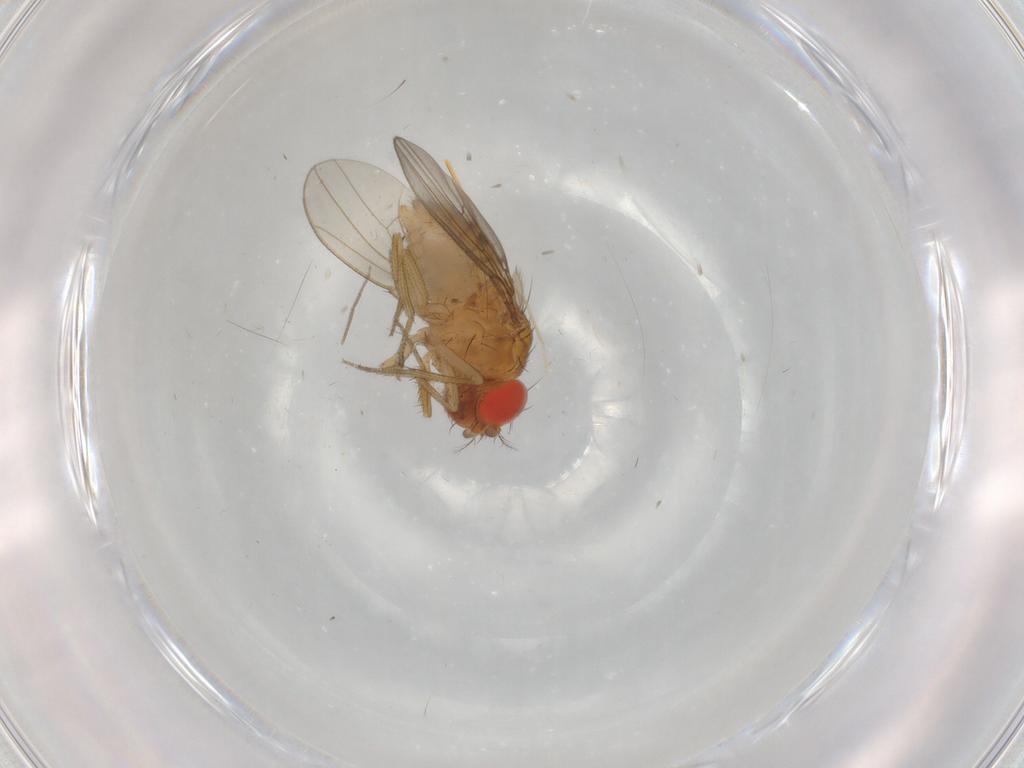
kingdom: Animalia
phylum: Arthropoda
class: Insecta
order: Diptera
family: Drosophilidae
